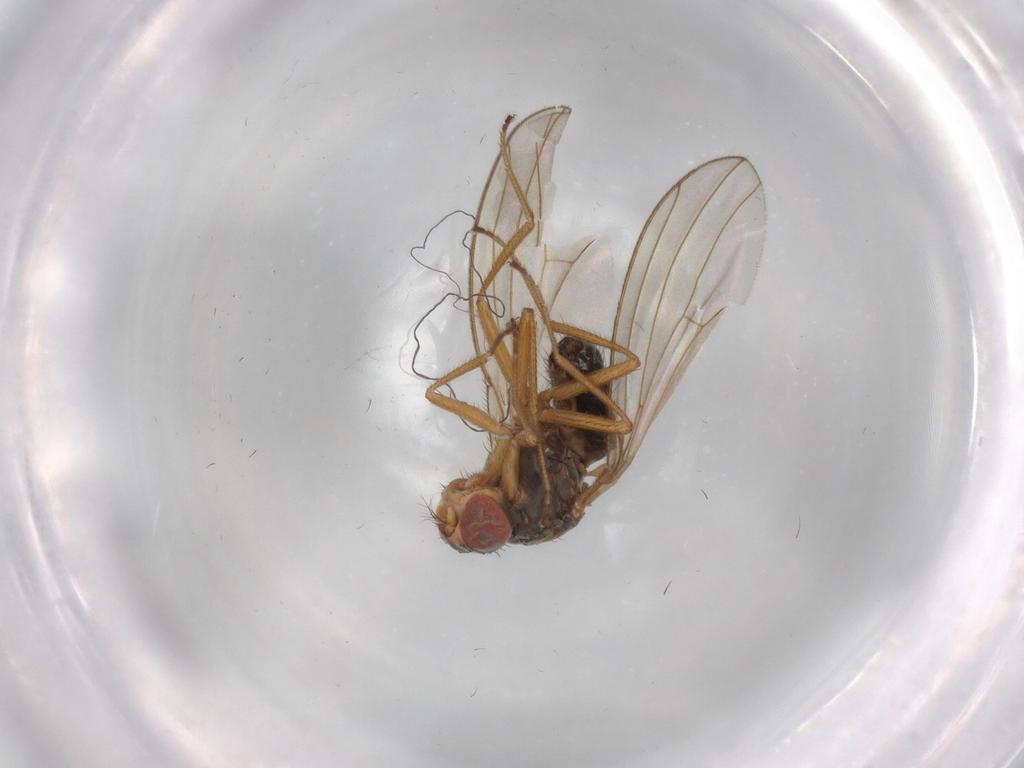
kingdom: Animalia
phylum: Arthropoda
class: Insecta
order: Diptera
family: Drosophilidae
